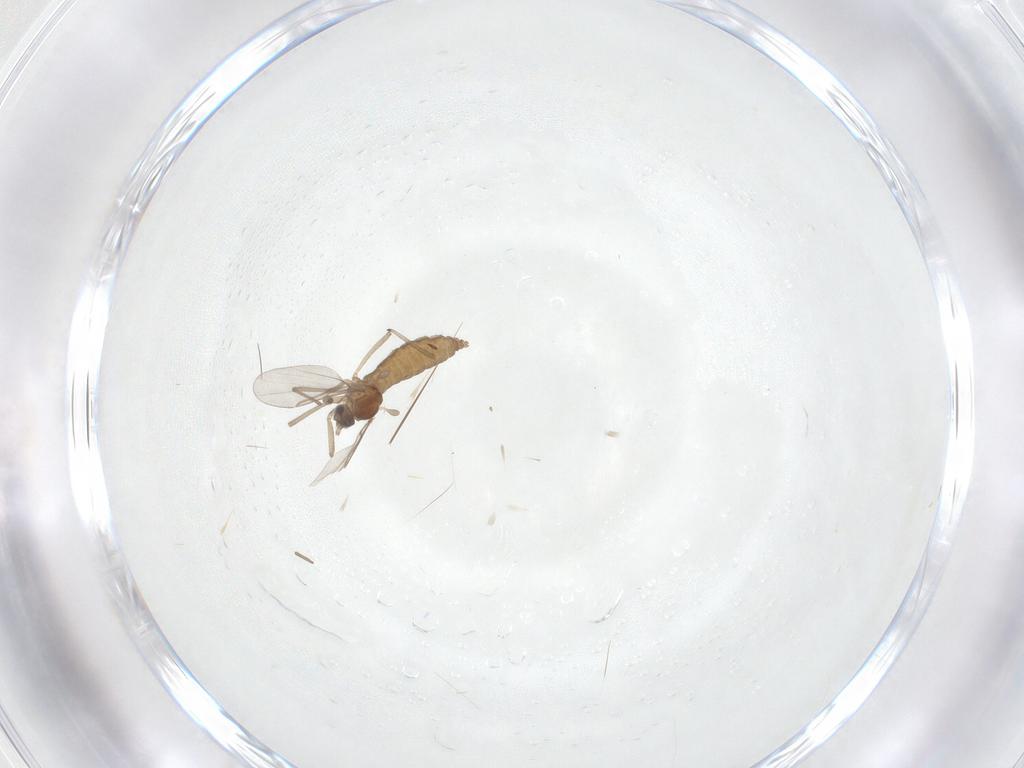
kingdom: Animalia
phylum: Arthropoda
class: Insecta
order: Diptera
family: Cecidomyiidae
